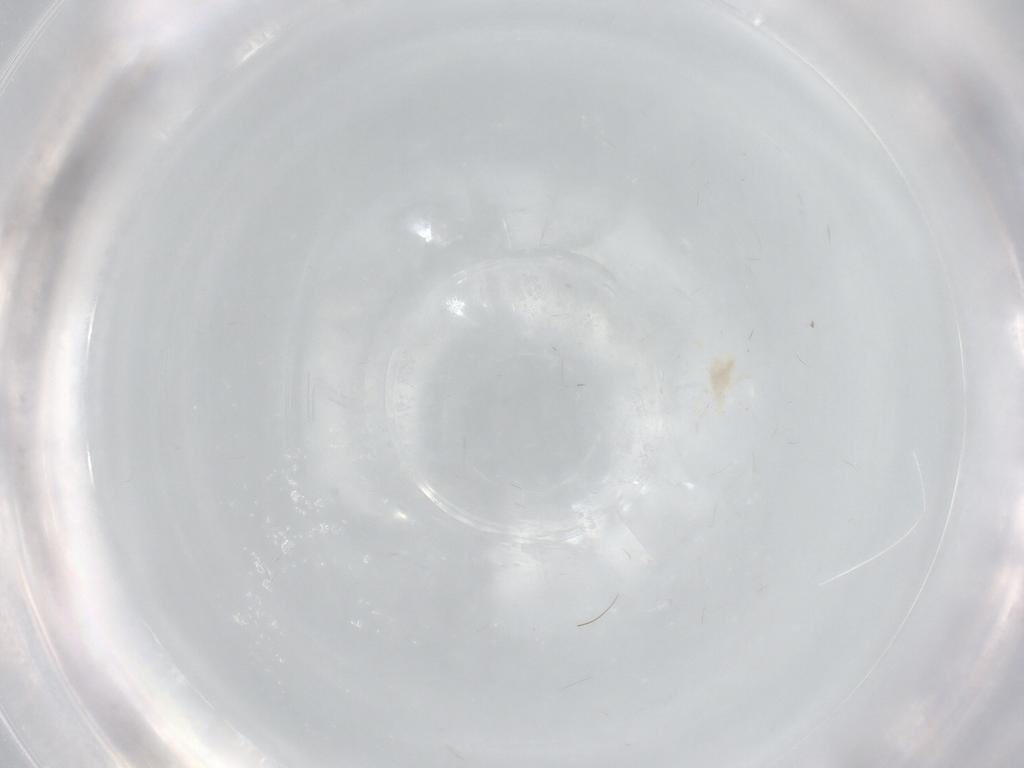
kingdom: Animalia
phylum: Arthropoda
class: Arachnida
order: Mesostigmata
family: Blattisociidae
